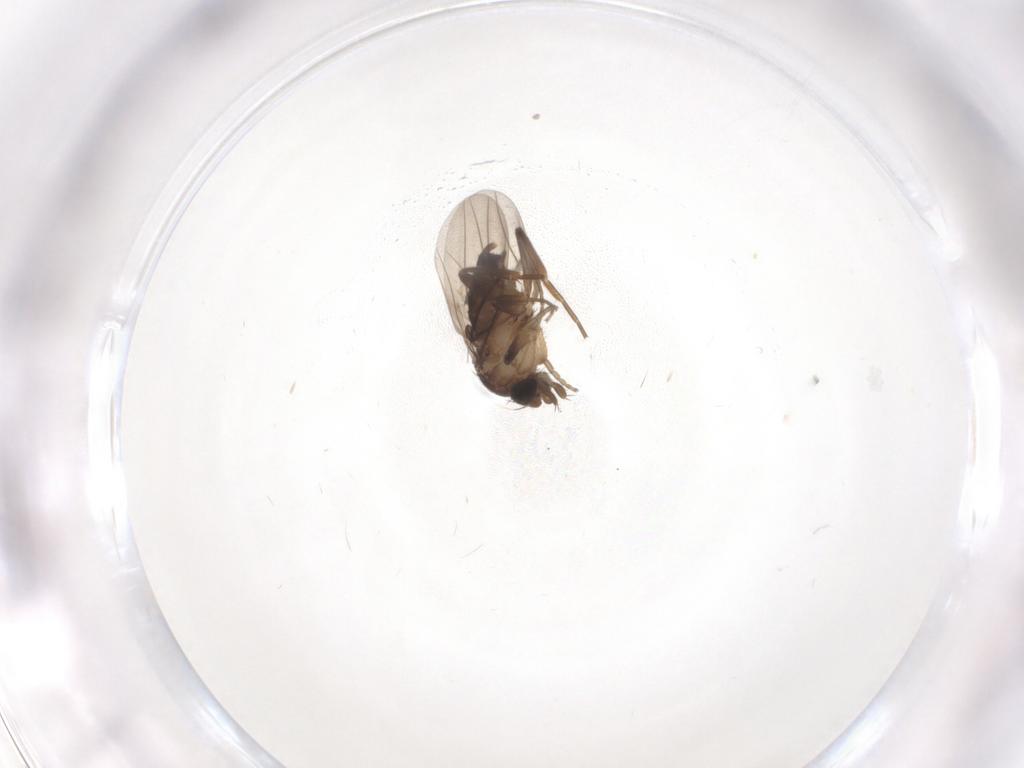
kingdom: Animalia
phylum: Arthropoda
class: Insecta
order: Diptera
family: Phoridae
